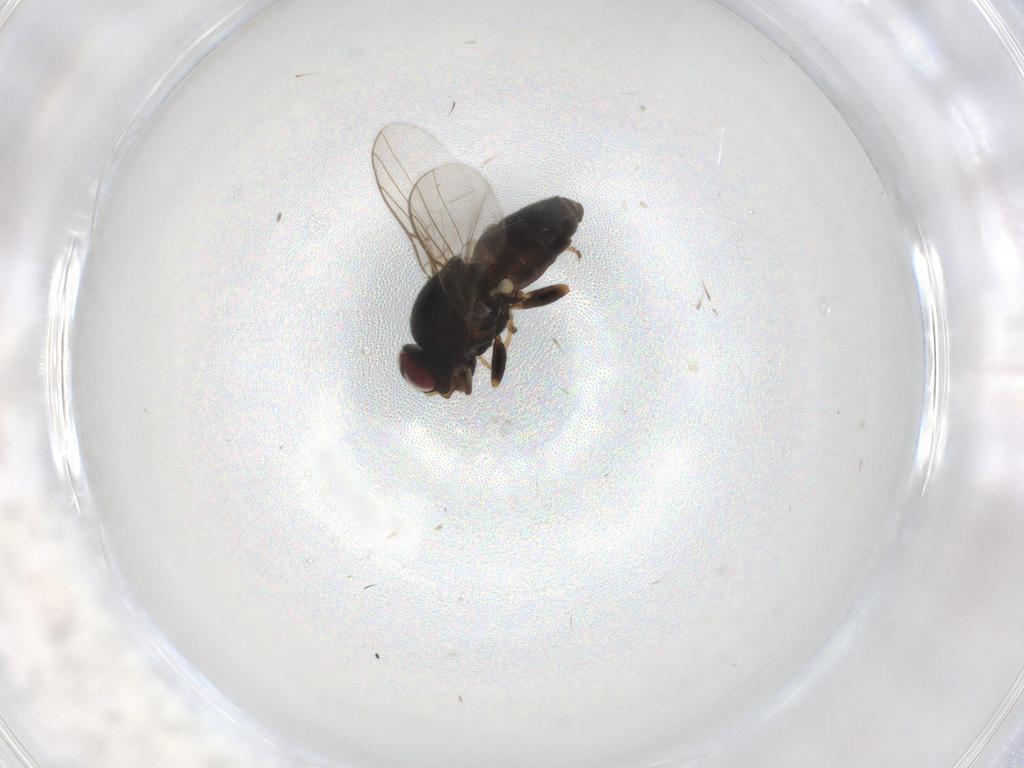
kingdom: Animalia
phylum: Arthropoda
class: Insecta
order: Diptera
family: Chloropidae
